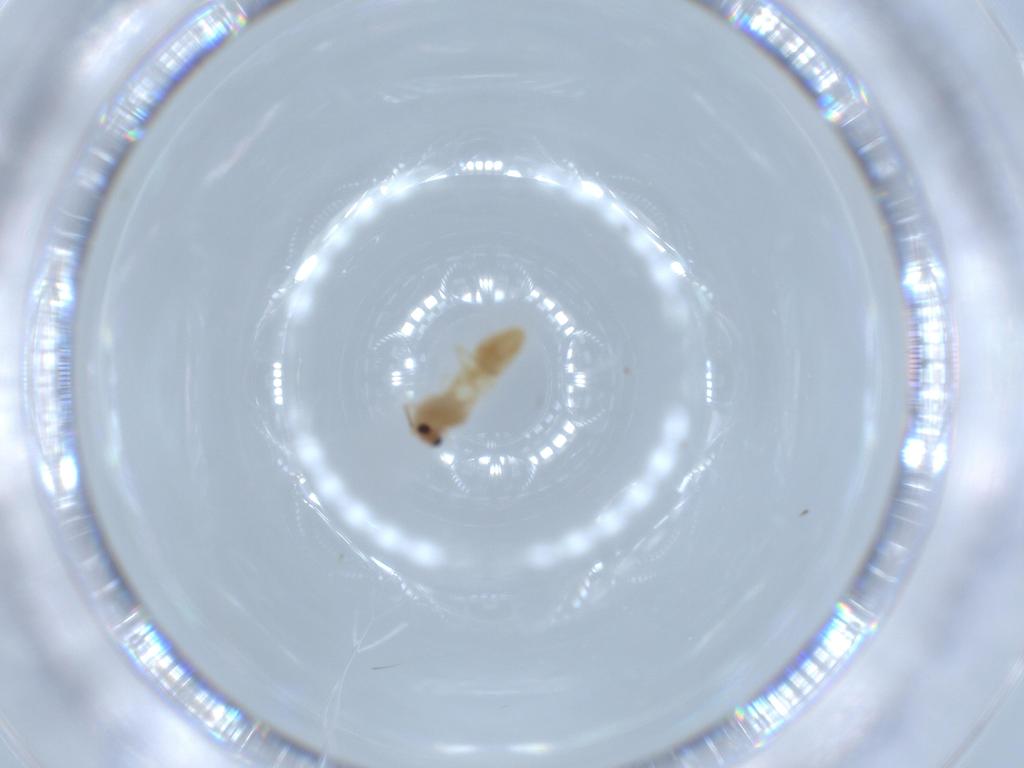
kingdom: Animalia
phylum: Arthropoda
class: Insecta
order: Diptera
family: Chironomidae
